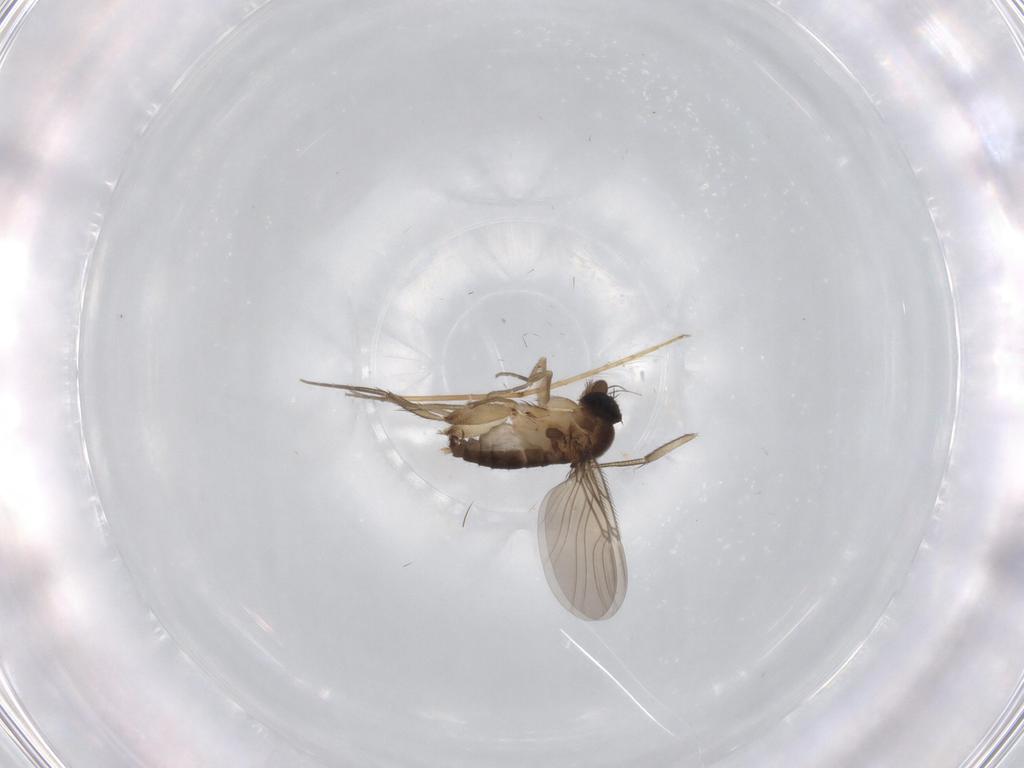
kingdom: Animalia
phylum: Arthropoda
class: Insecta
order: Diptera
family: Phoridae
